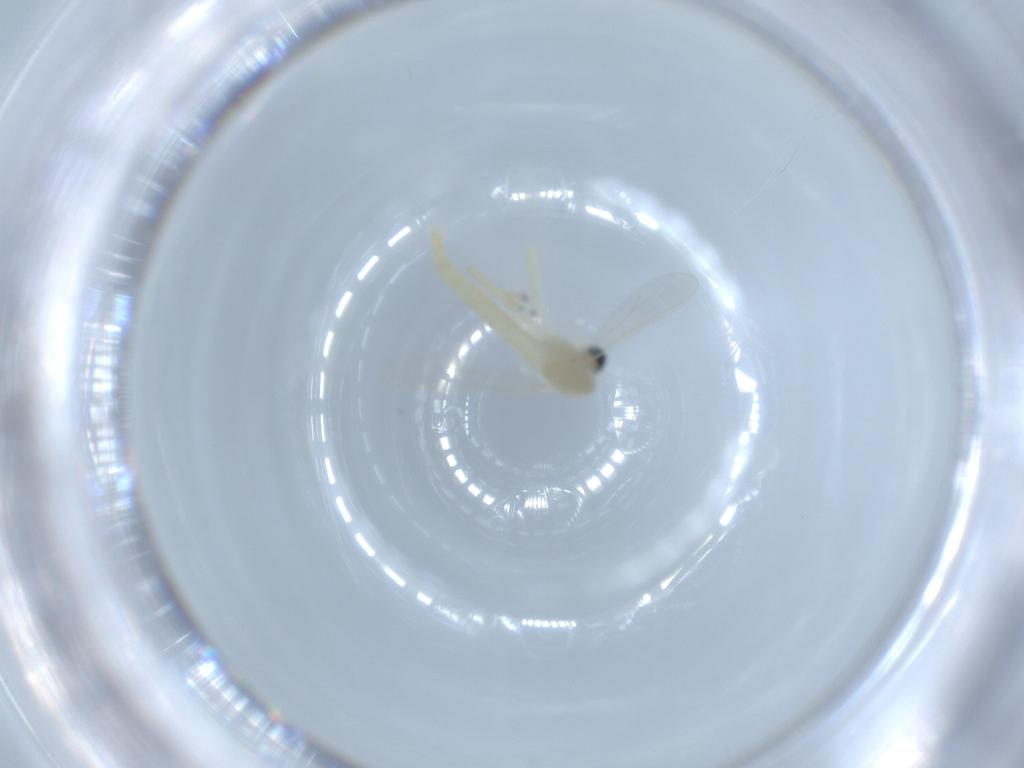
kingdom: Animalia
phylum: Arthropoda
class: Insecta
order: Diptera
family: Chironomidae
